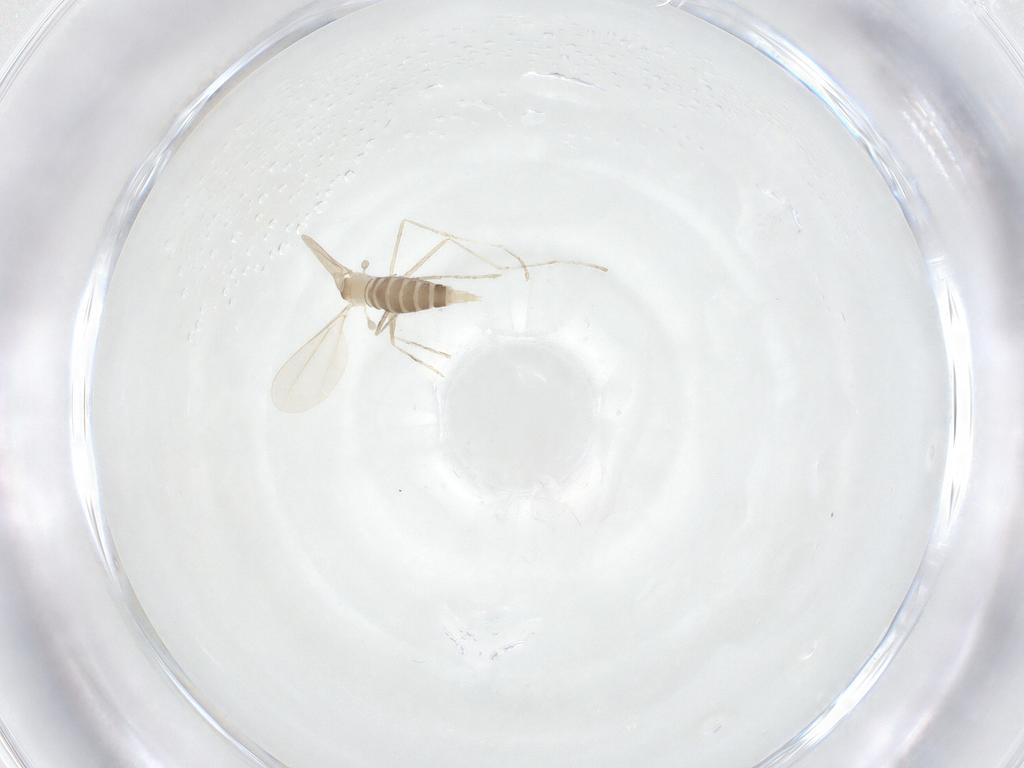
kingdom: Animalia
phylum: Arthropoda
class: Insecta
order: Diptera
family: Cecidomyiidae
